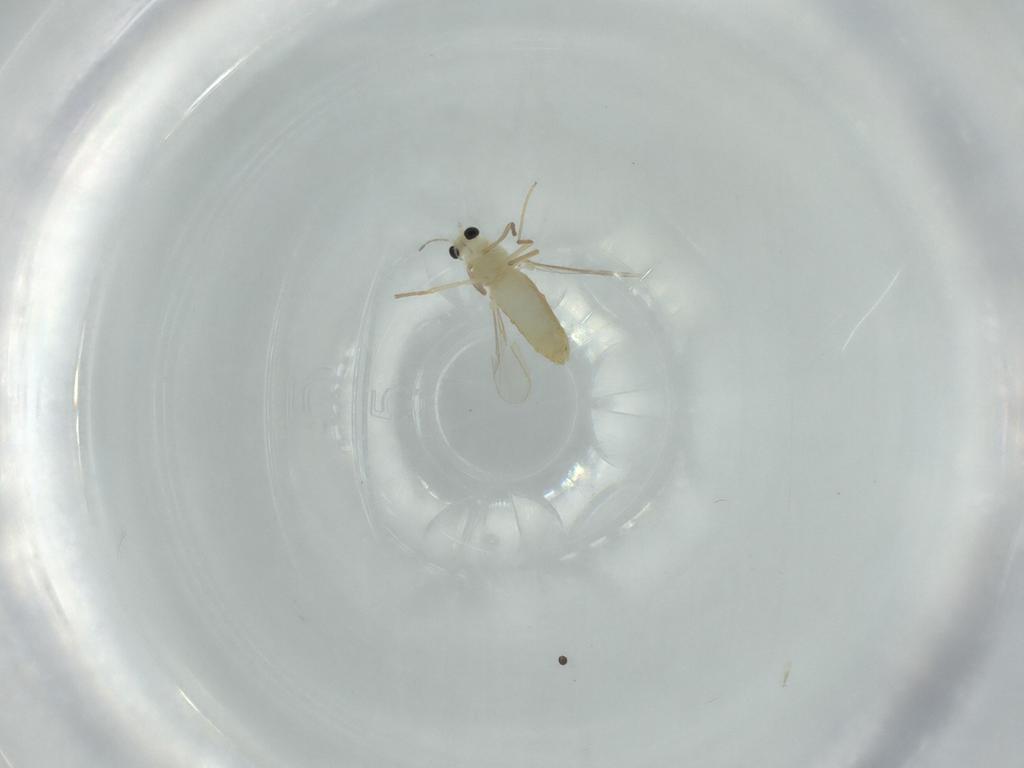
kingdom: Animalia
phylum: Arthropoda
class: Insecta
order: Diptera
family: Chironomidae
